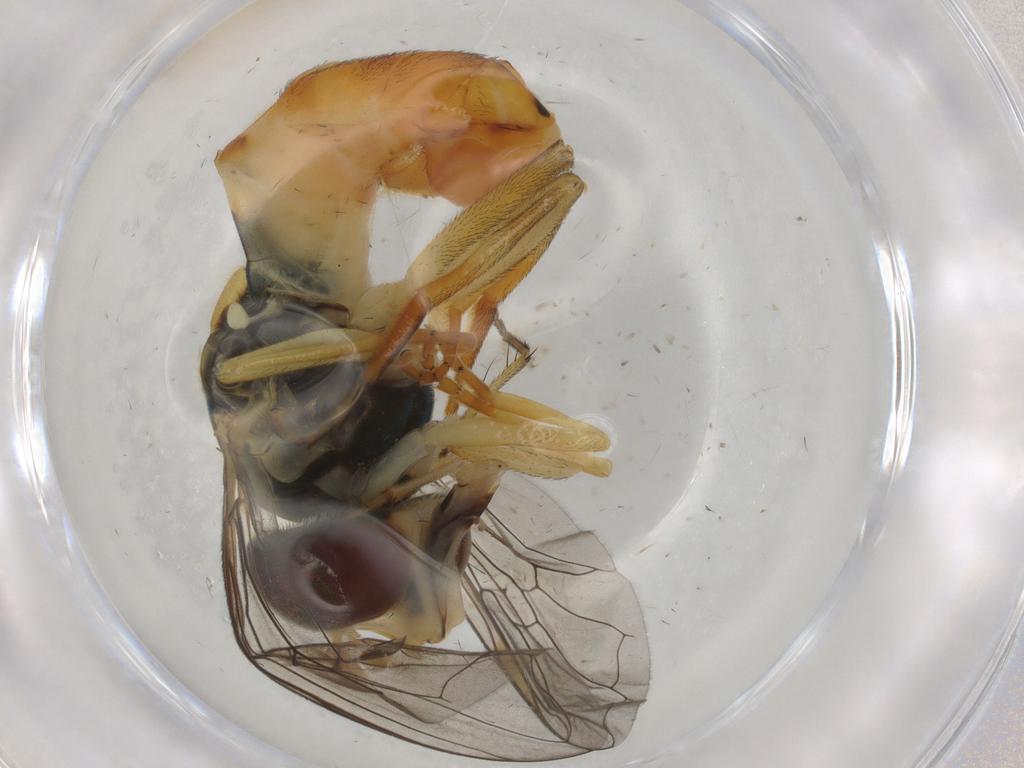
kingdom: Animalia
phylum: Arthropoda
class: Insecta
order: Diptera
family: Syrphidae
